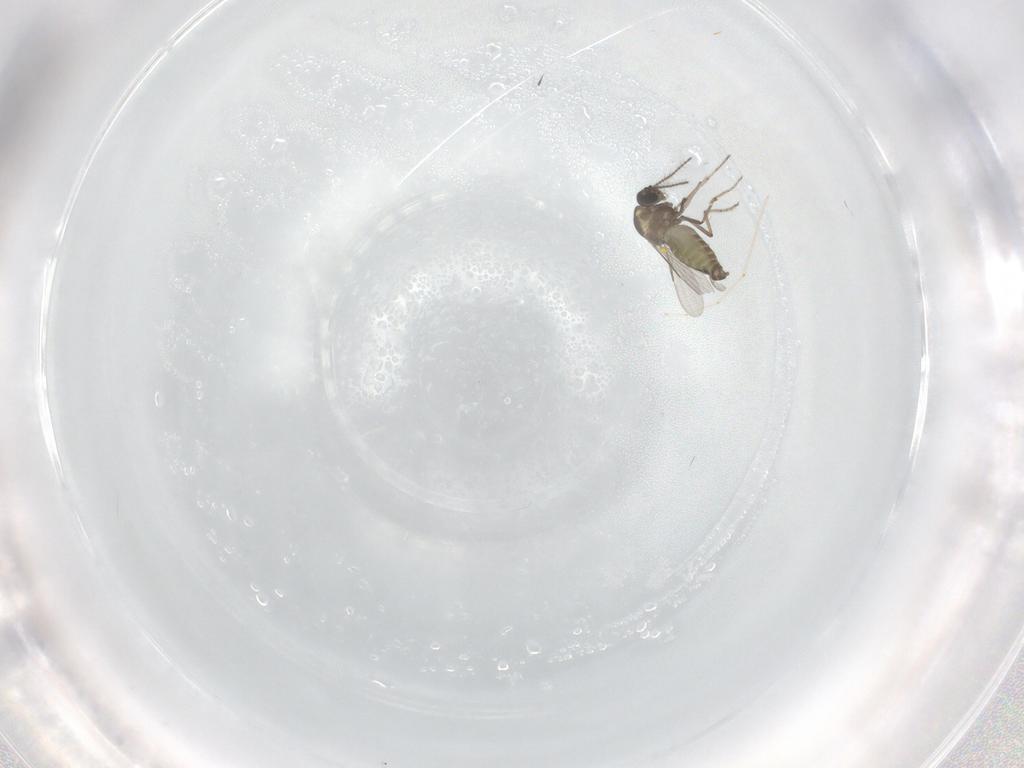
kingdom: Animalia
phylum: Arthropoda
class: Insecta
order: Diptera
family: Ceratopogonidae
